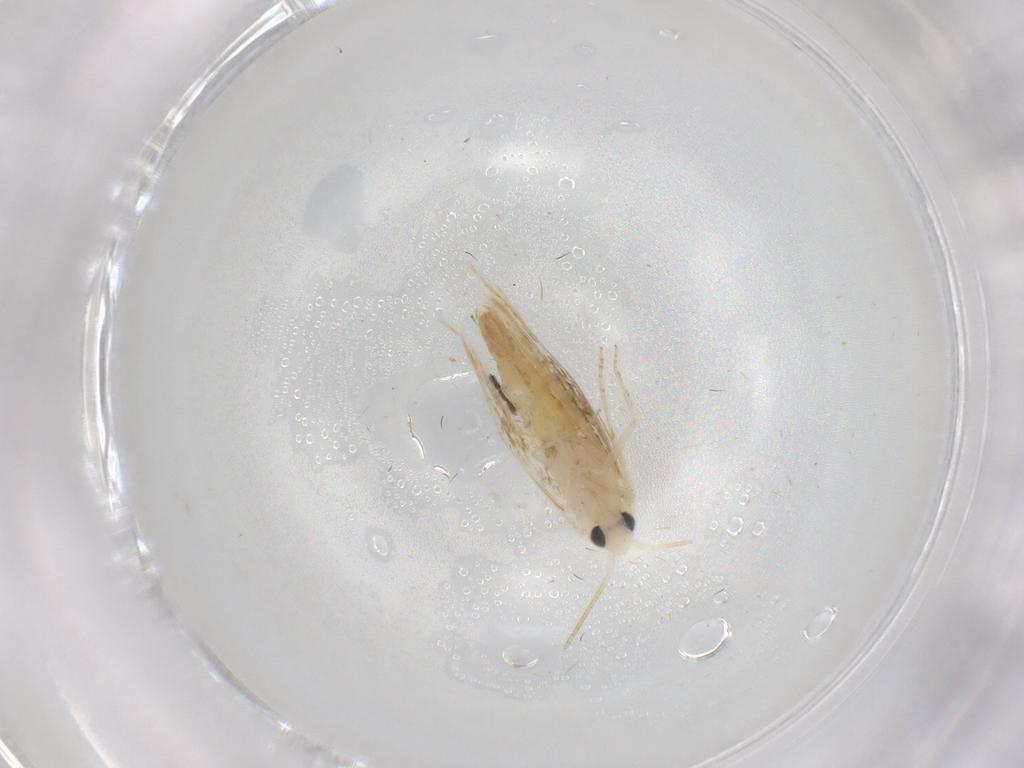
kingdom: Animalia
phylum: Arthropoda
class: Insecta
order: Lepidoptera
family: Bucculatricidae
